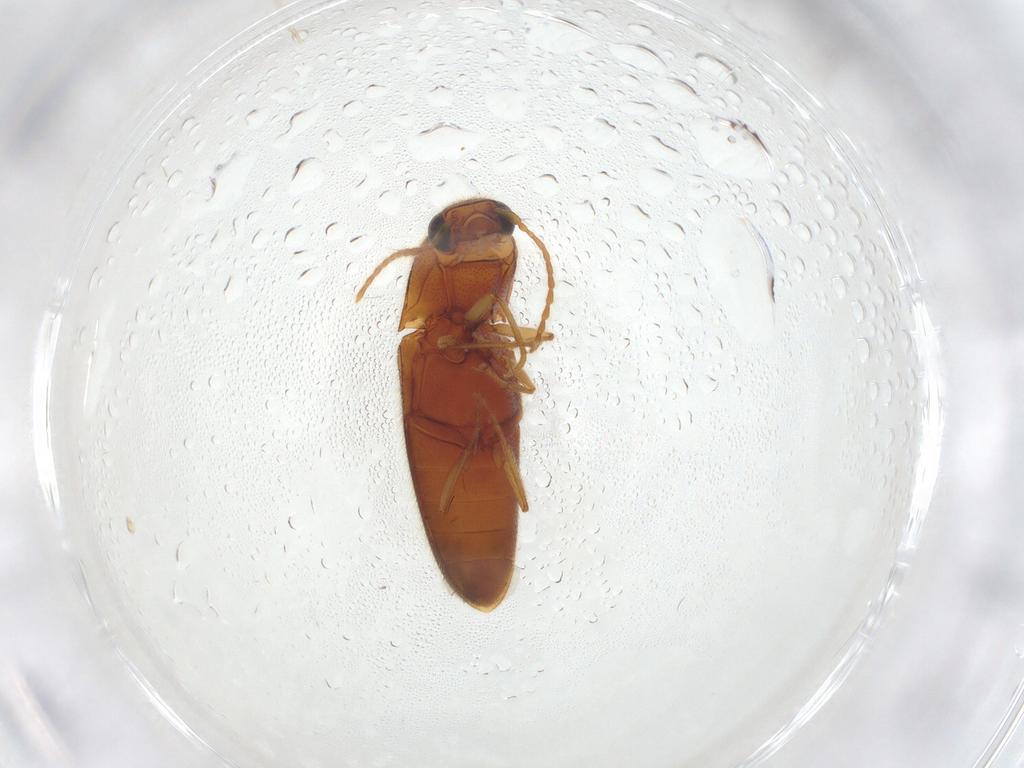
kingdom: Animalia
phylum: Arthropoda
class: Insecta
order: Coleoptera
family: Elateridae
